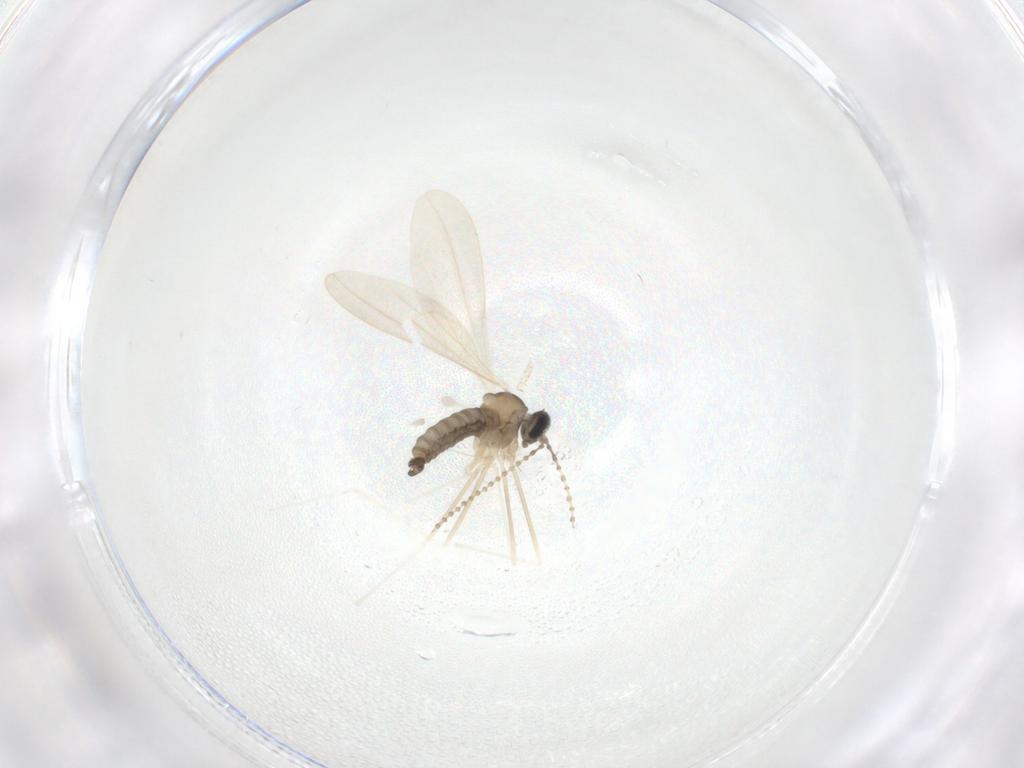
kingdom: Animalia
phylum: Arthropoda
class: Insecta
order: Diptera
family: Cecidomyiidae
